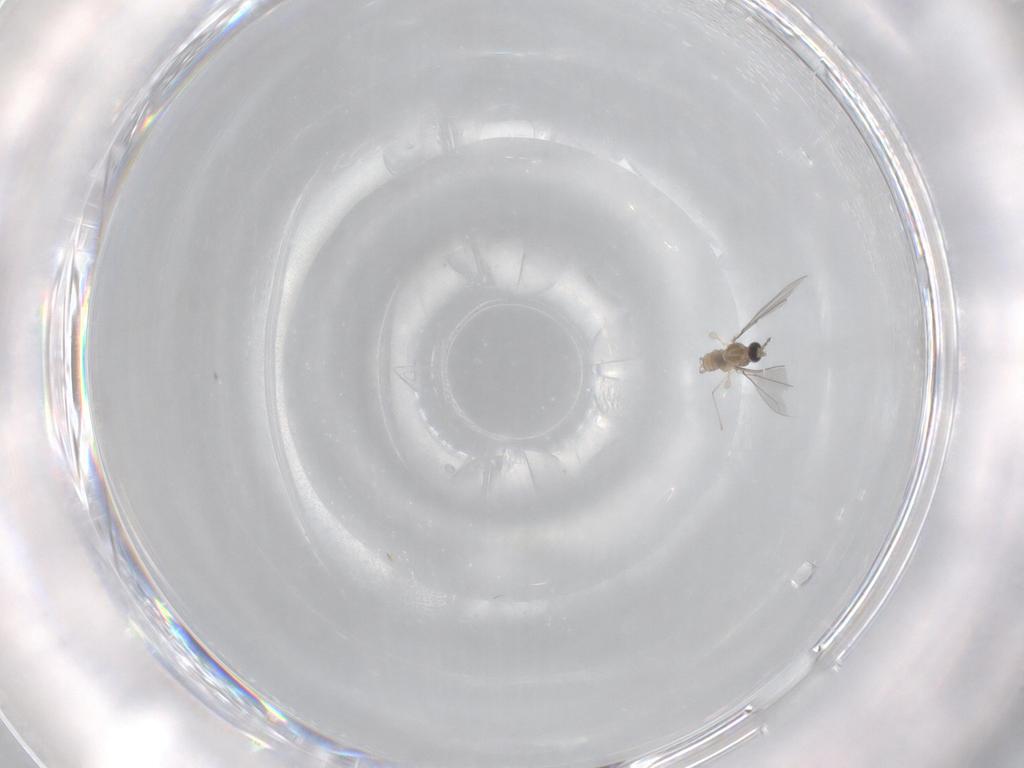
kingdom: Animalia
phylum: Arthropoda
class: Insecta
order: Diptera
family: Sciaridae
